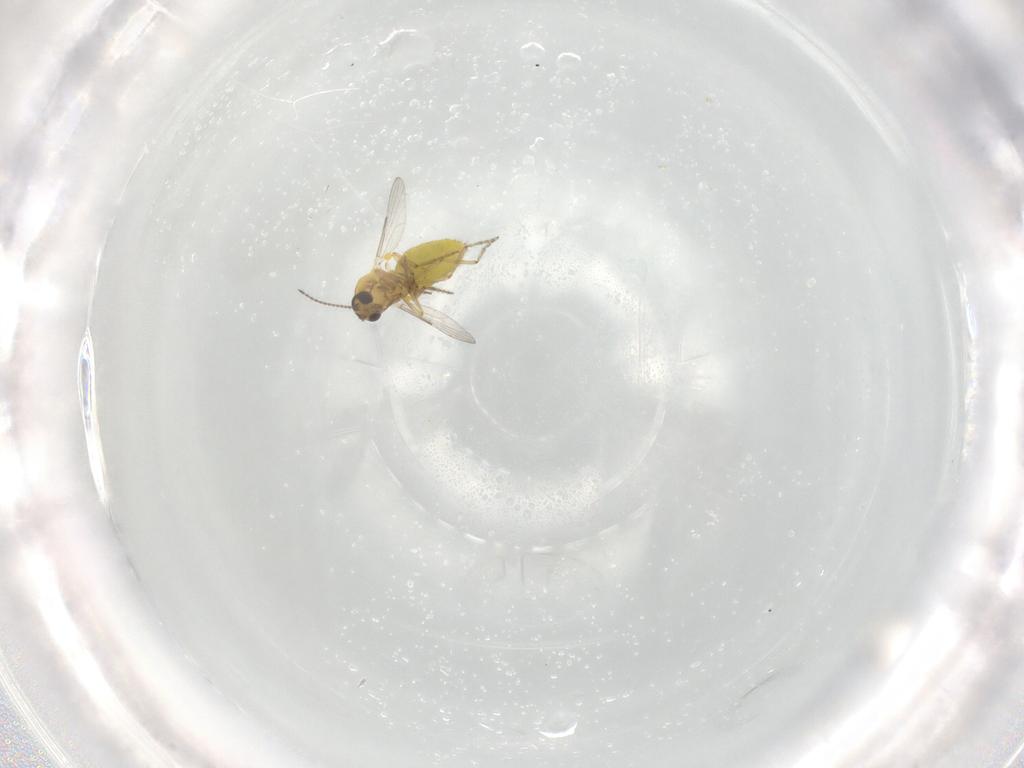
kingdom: Animalia
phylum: Arthropoda
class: Insecta
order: Diptera
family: Ceratopogonidae
